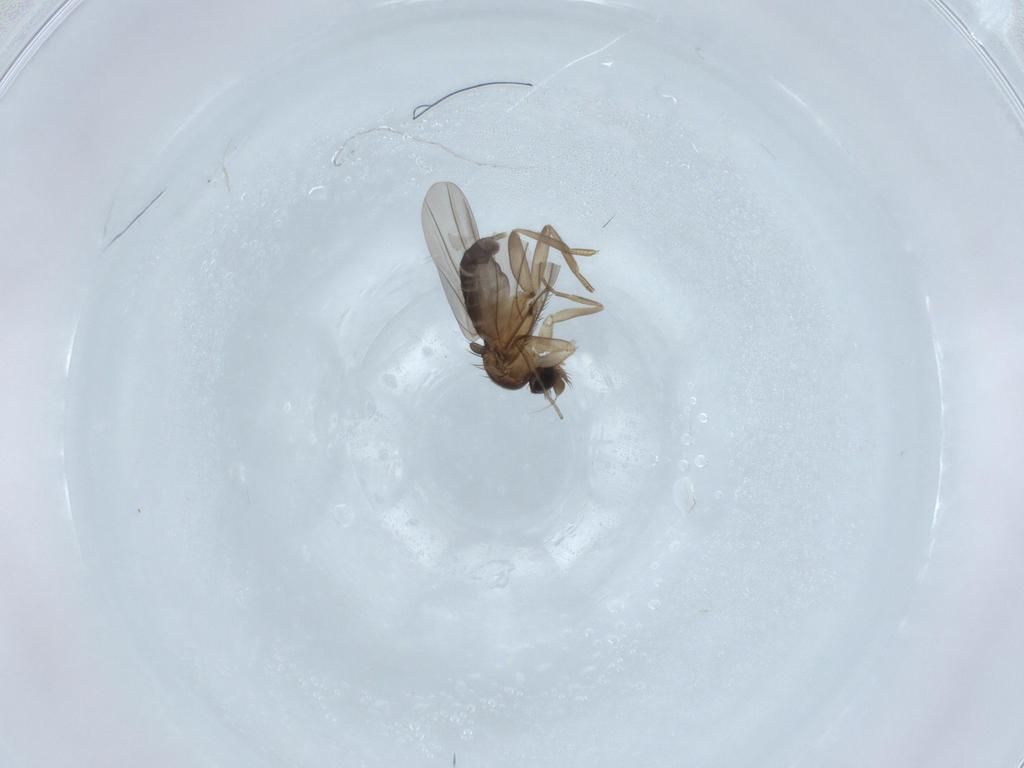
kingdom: Animalia
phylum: Arthropoda
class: Insecta
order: Diptera
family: Phoridae
